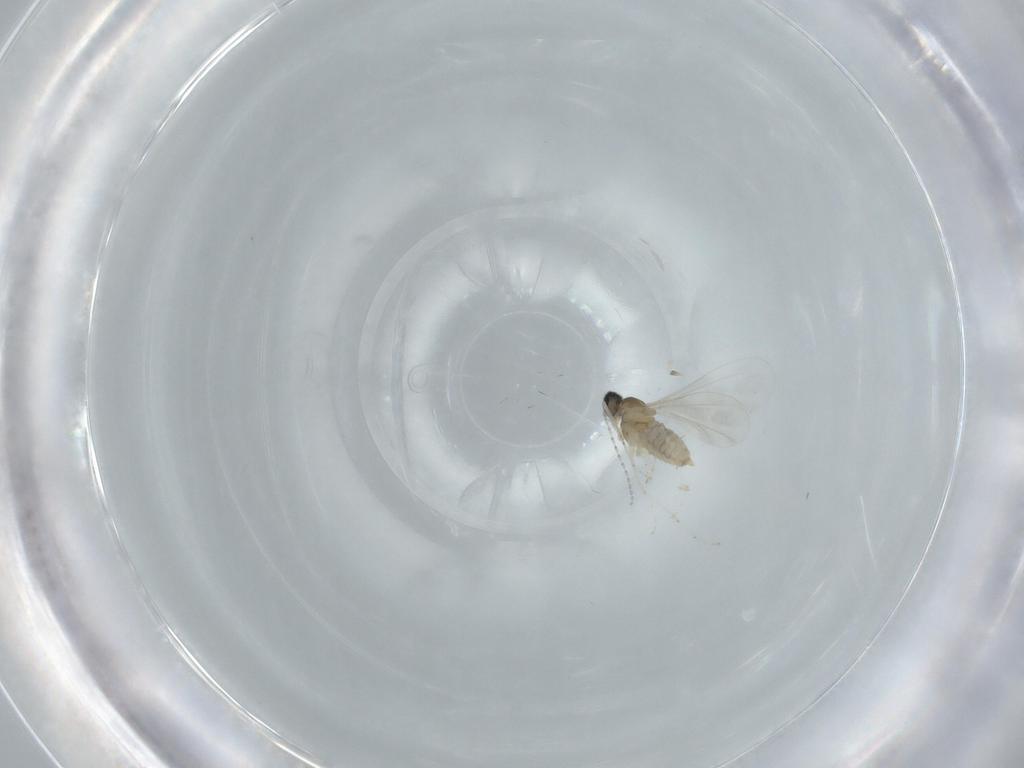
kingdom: Animalia
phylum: Arthropoda
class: Insecta
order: Diptera
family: Cecidomyiidae
